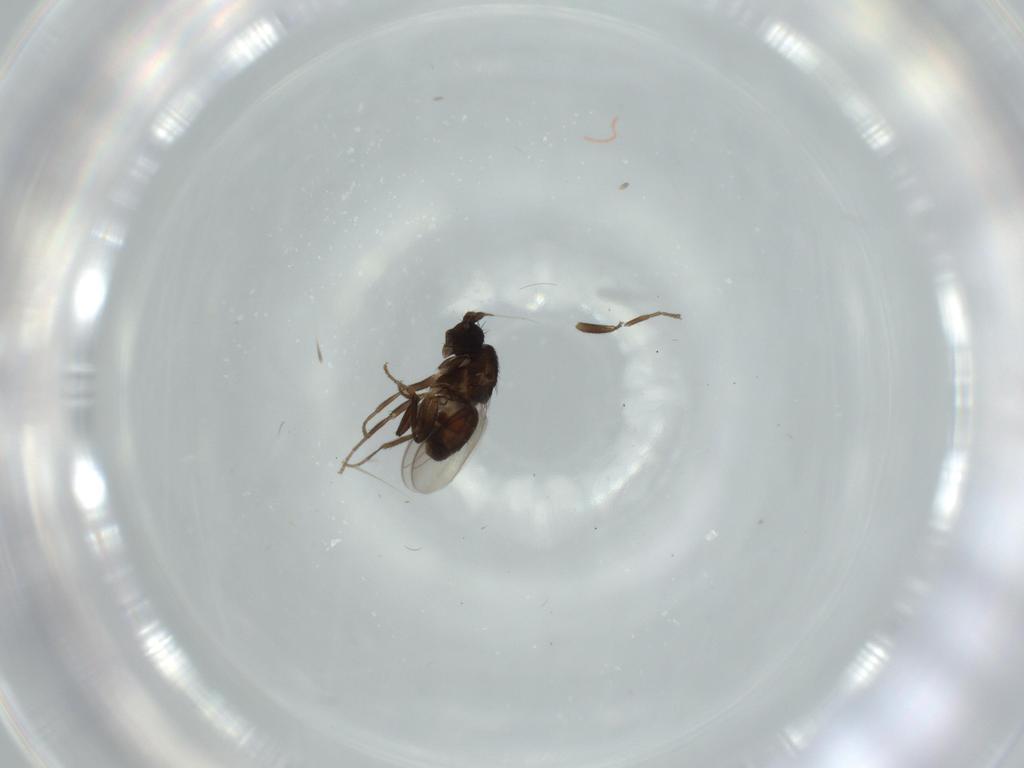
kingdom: Animalia
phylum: Arthropoda
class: Insecta
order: Diptera
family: Sphaeroceridae
